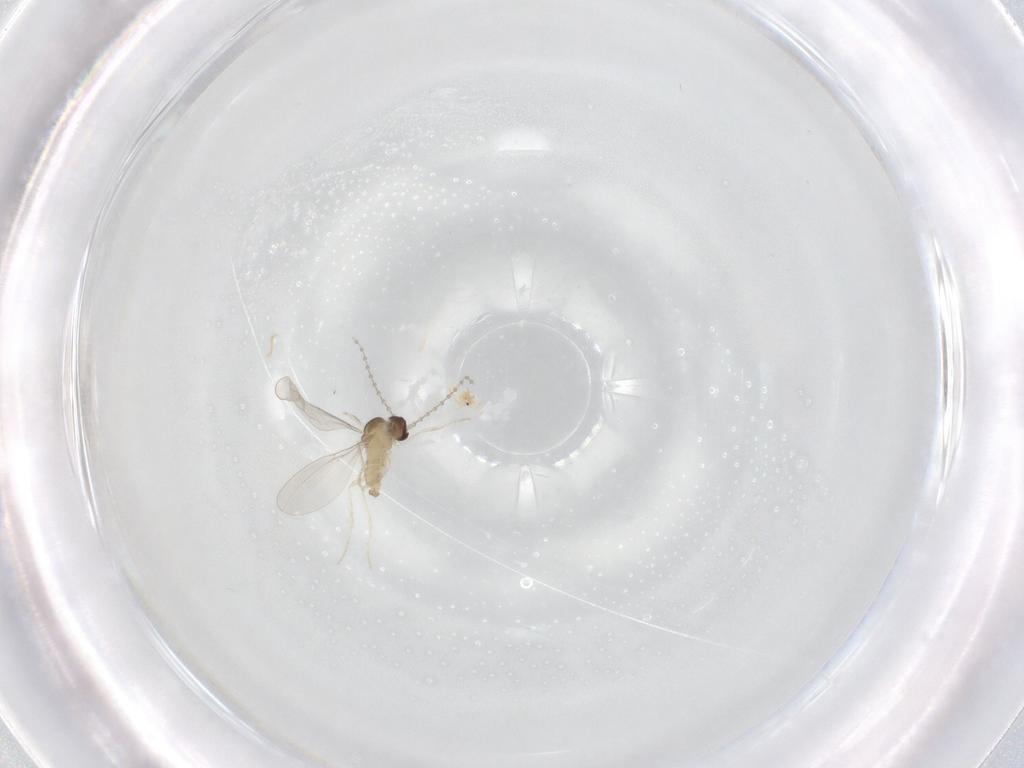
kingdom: Animalia
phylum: Arthropoda
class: Insecta
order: Diptera
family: Cecidomyiidae
